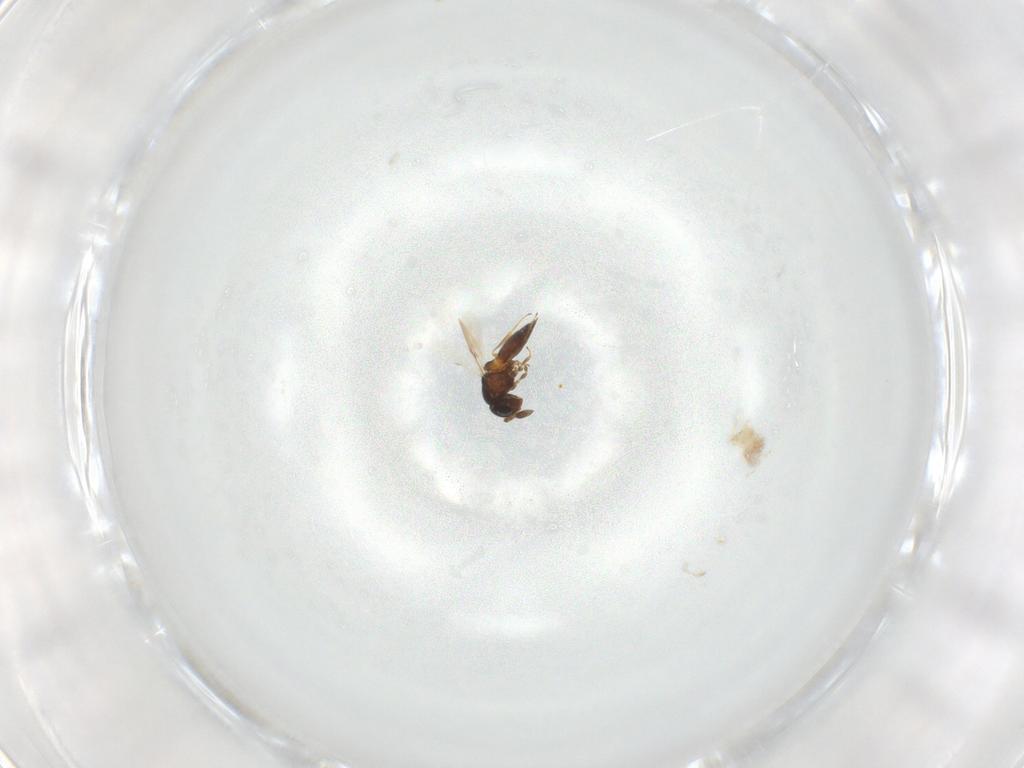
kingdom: Animalia
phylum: Arthropoda
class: Insecta
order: Hymenoptera
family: Scelionidae
